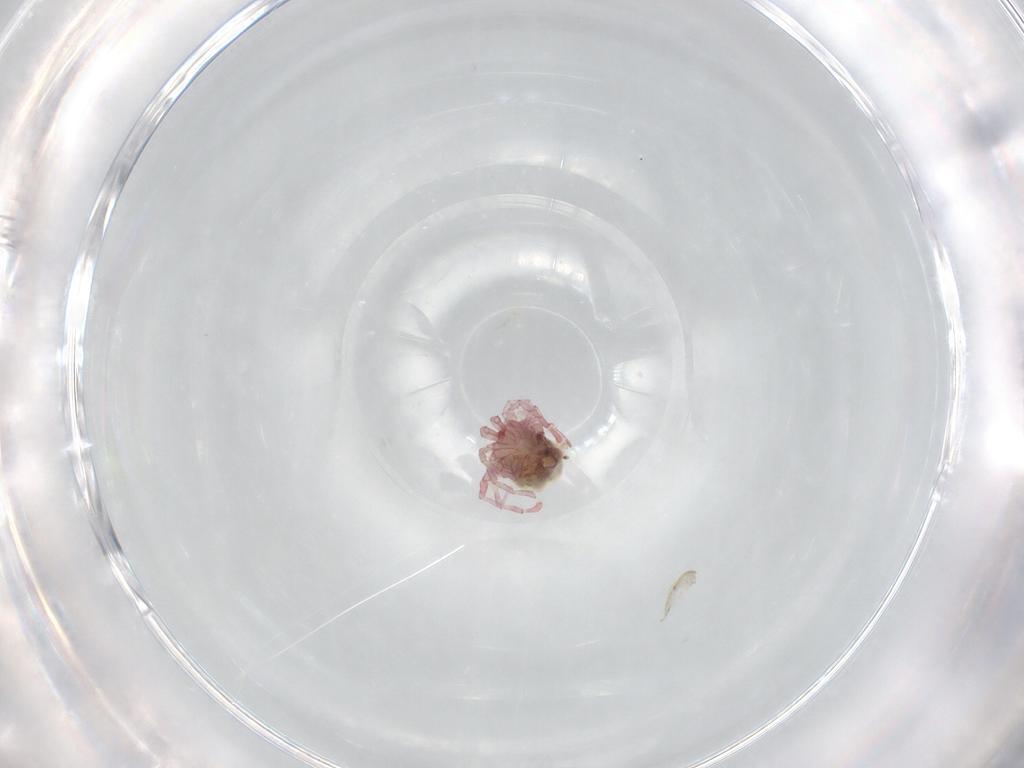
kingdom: Animalia
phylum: Arthropoda
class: Arachnida
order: Trombidiformes
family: Pionidae
